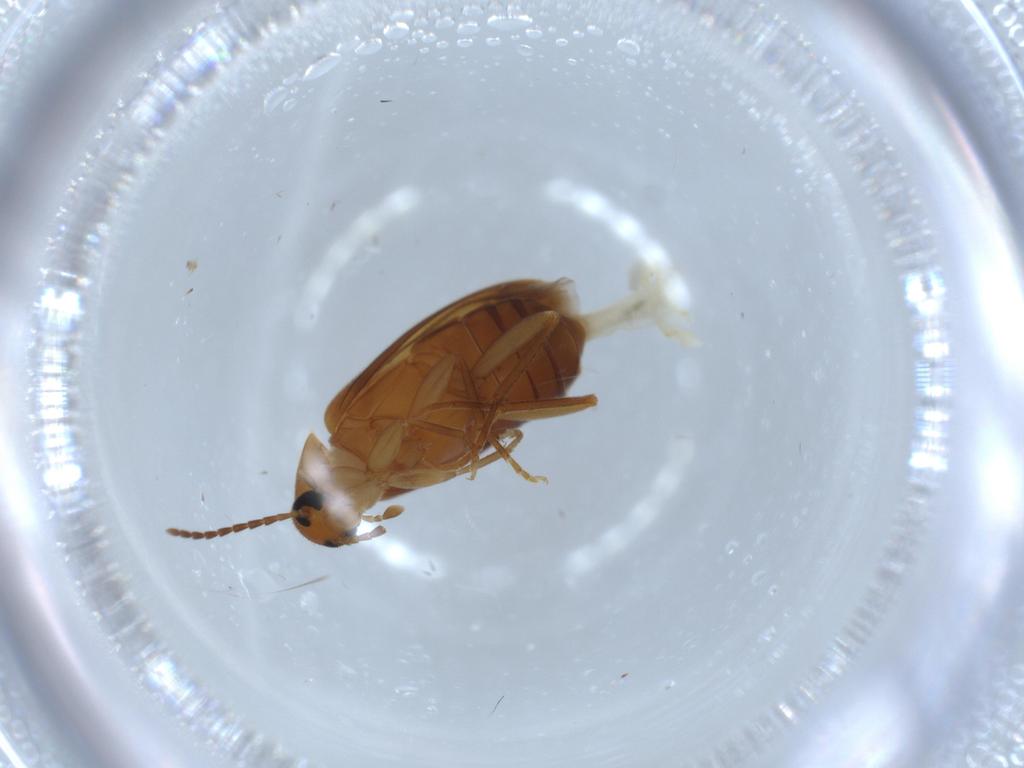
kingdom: Animalia
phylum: Arthropoda
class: Insecta
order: Coleoptera
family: Scraptiidae
